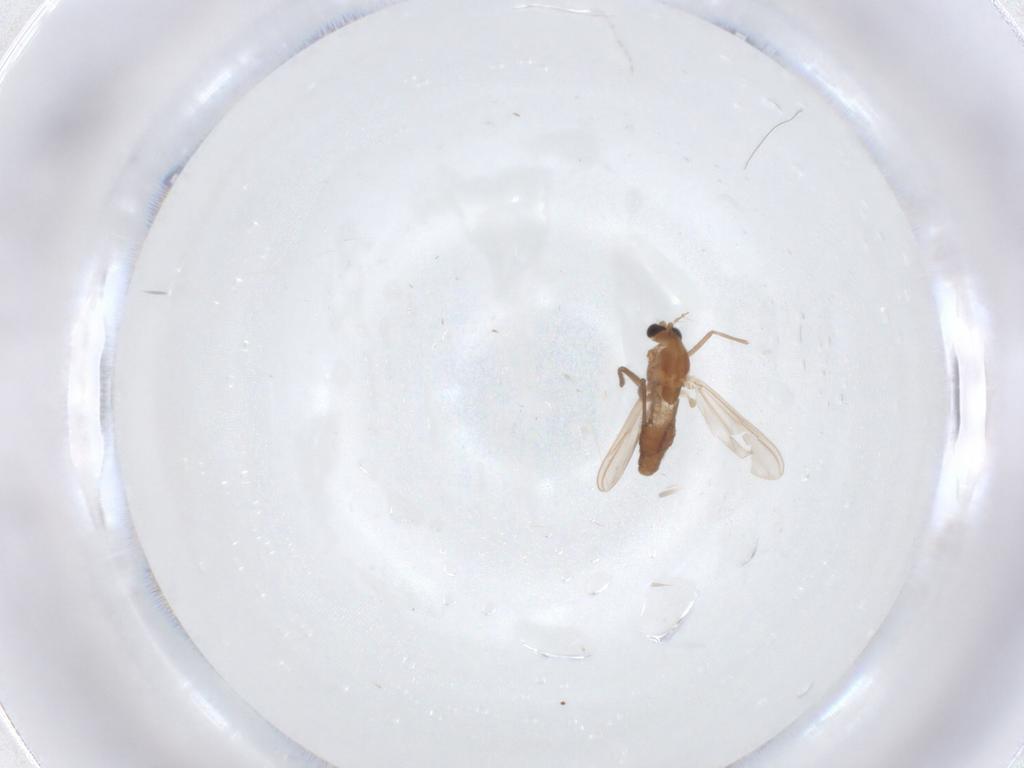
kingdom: Animalia
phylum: Arthropoda
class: Insecta
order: Diptera
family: Chironomidae
